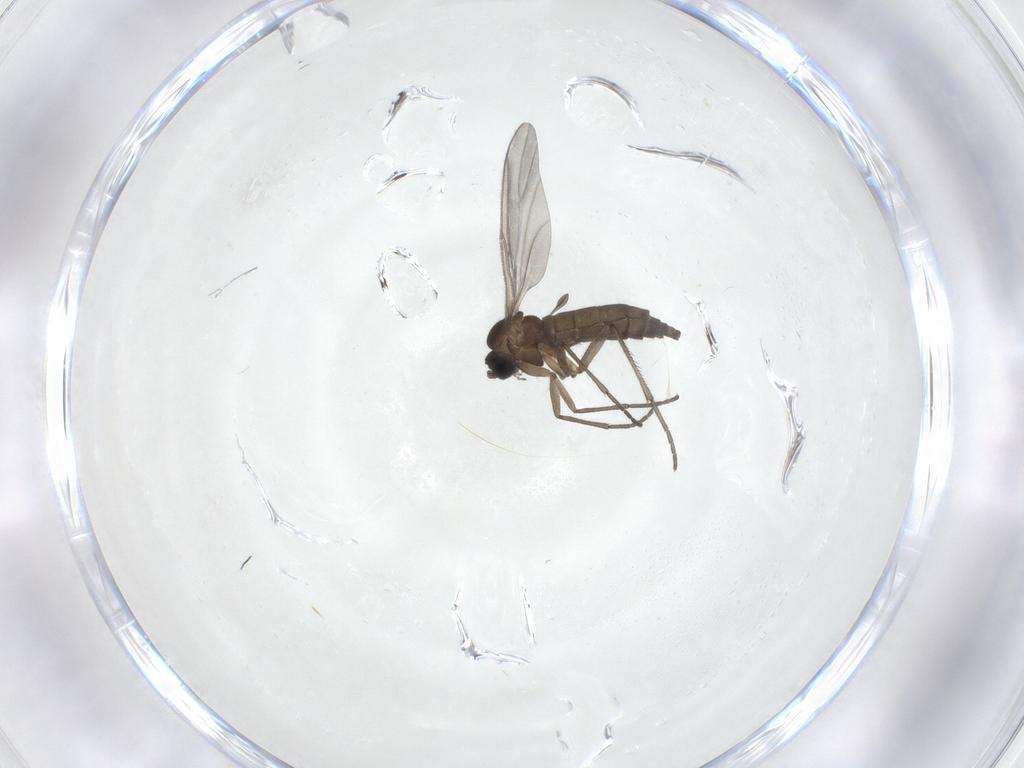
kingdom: Animalia
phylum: Arthropoda
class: Insecta
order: Diptera
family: Sciaridae
